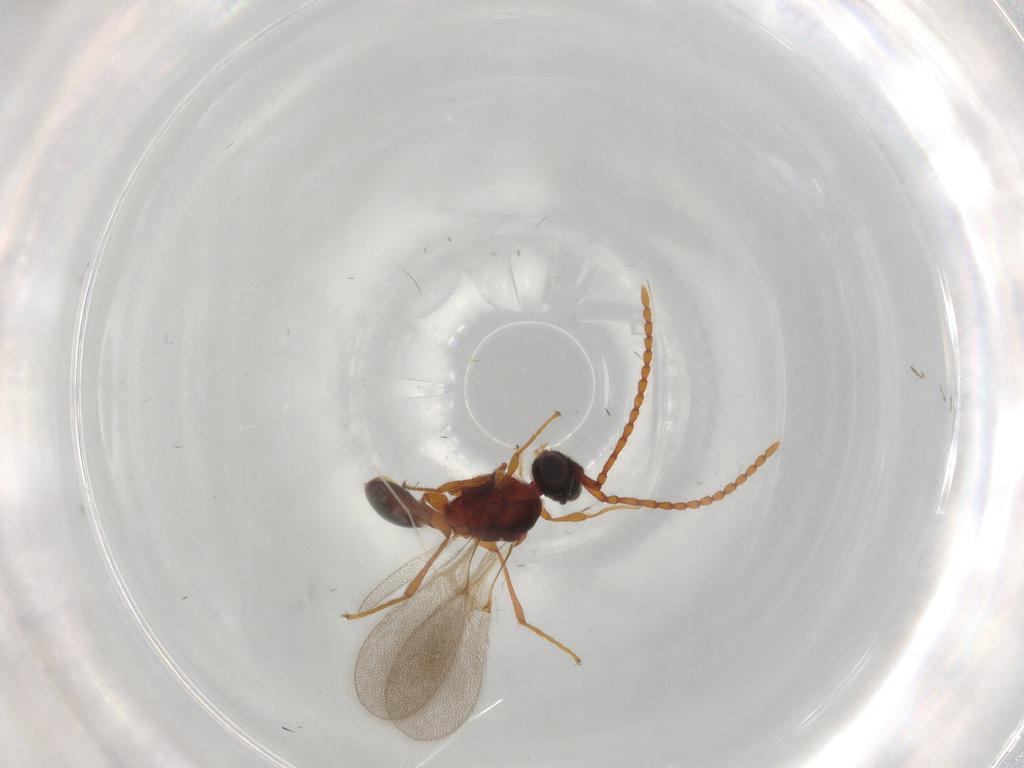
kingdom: Animalia
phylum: Arthropoda
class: Insecta
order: Hymenoptera
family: Diapriidae
